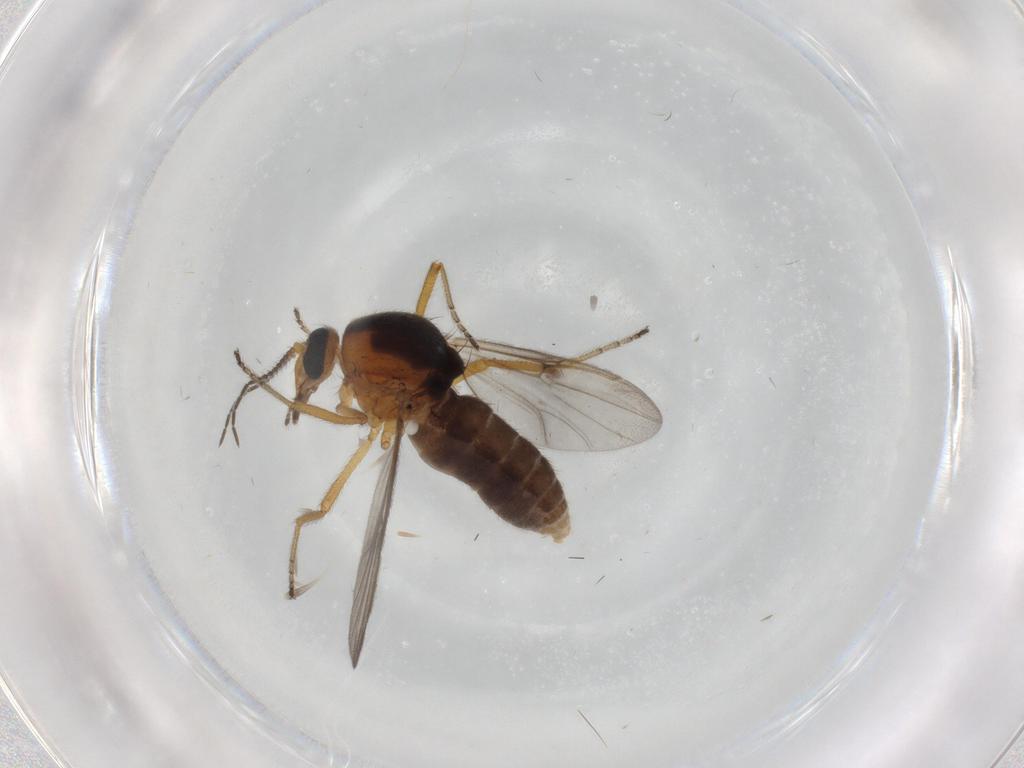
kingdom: Animalia
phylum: Arthropoda
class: Insecta
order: Diptera
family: Ceratopogonidae
